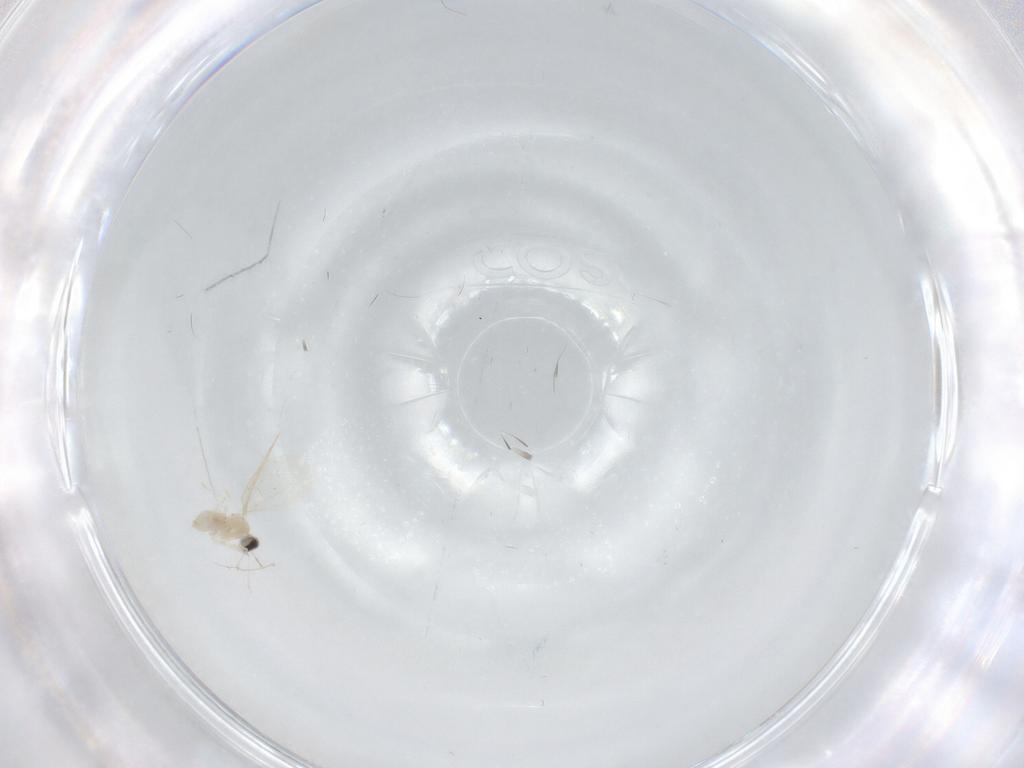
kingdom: Animalia
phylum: Arthropoda
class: Insecta
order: Diptera
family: Cecidomyiidae
